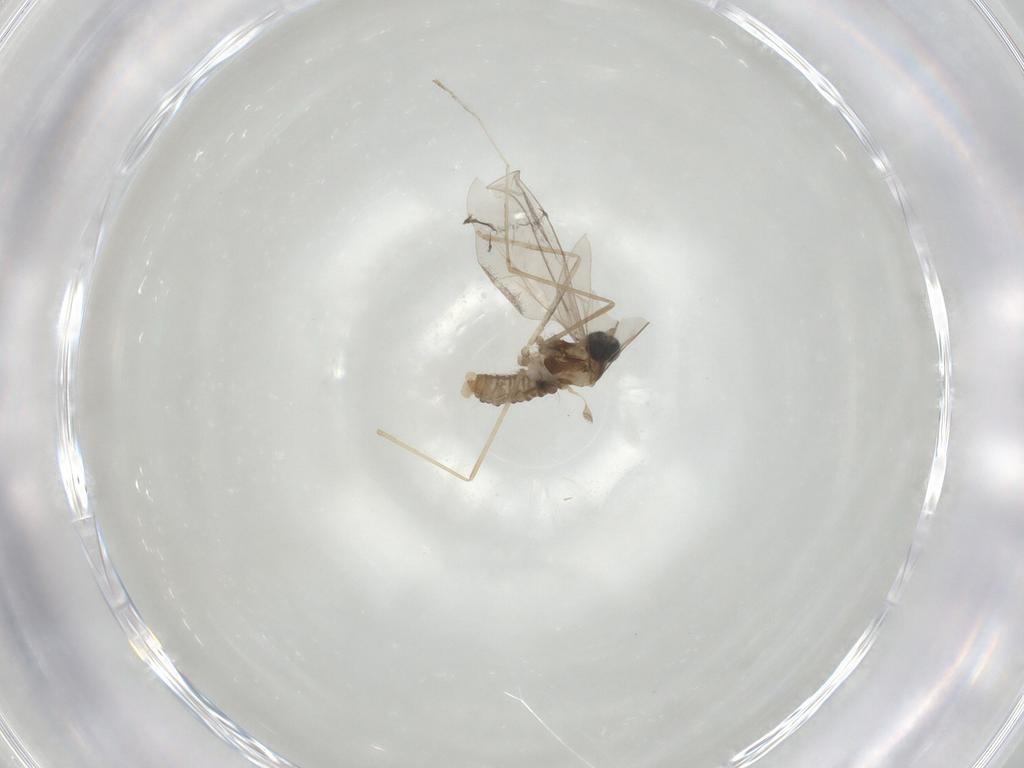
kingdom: Animalia
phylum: Arthropoda
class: Insecta
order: Diptera
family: Cecidomyiidae
